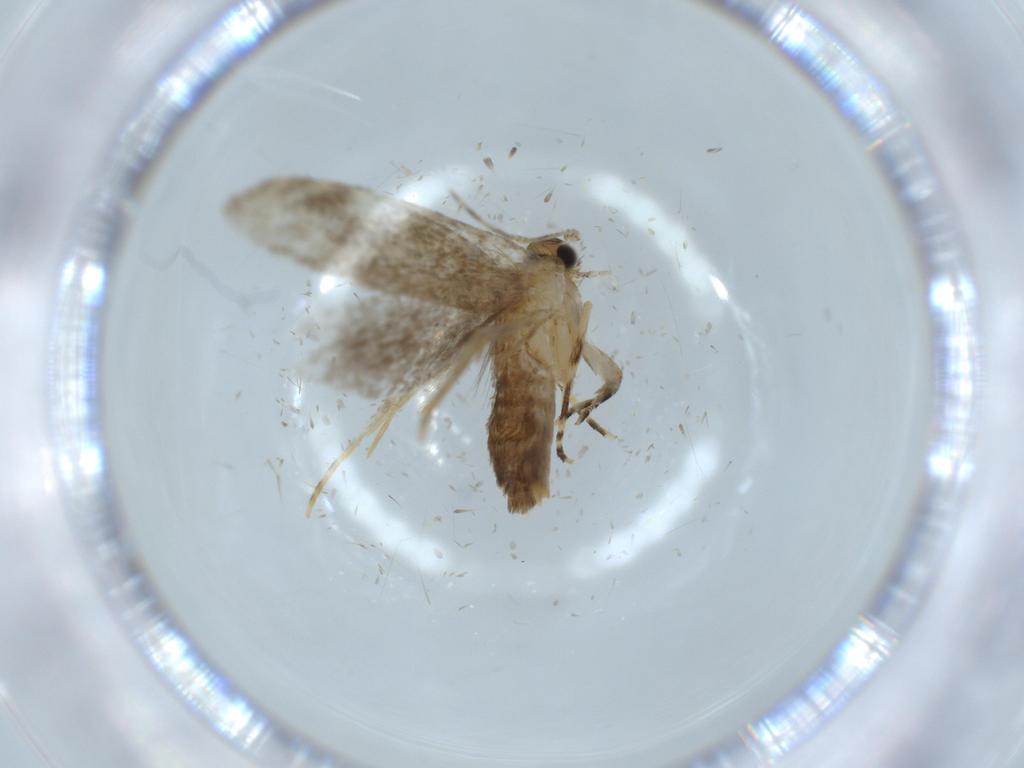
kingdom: Animalia
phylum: Arthropoda
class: Insecta
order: Lepidoptera
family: Tineidae
